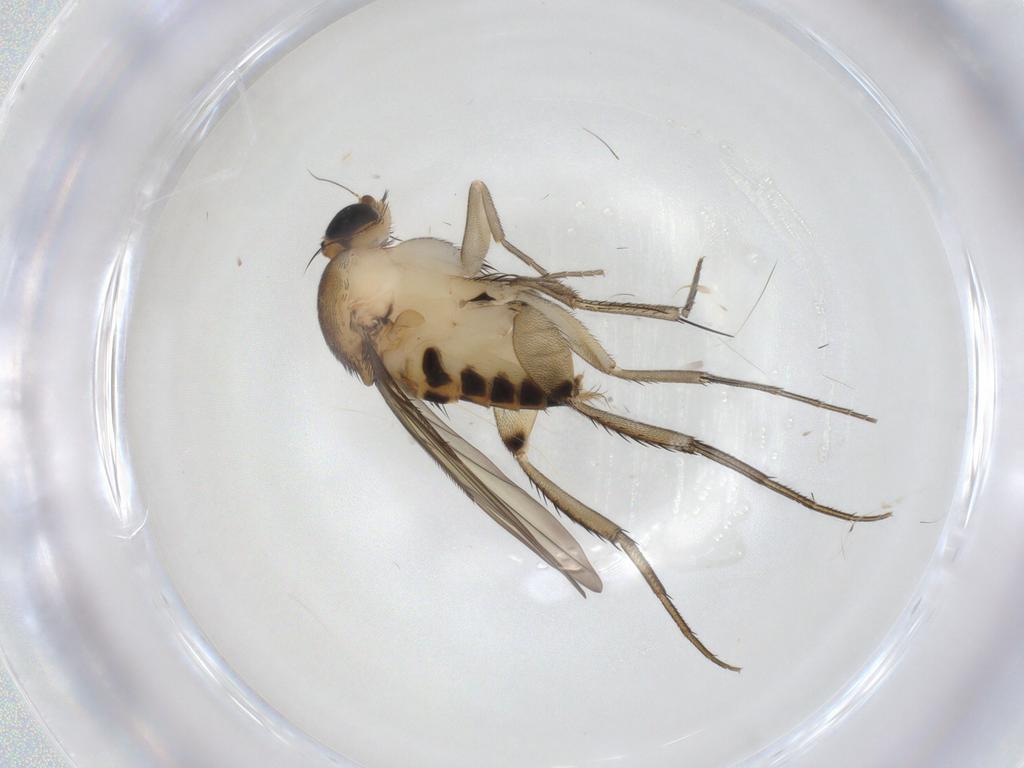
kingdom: Animalia
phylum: Arthropoda
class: Insecta
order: Diptera
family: Phoridae
